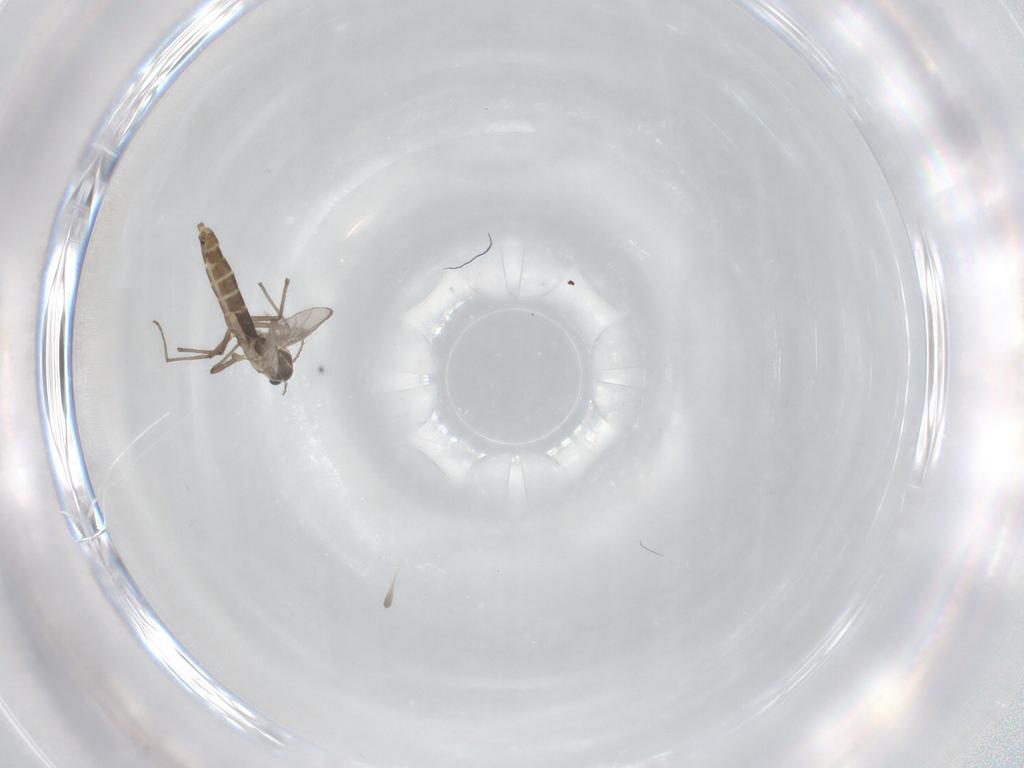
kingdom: Animalia
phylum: Arthropoda
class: Insecta
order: Diptera
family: Chironomidae
